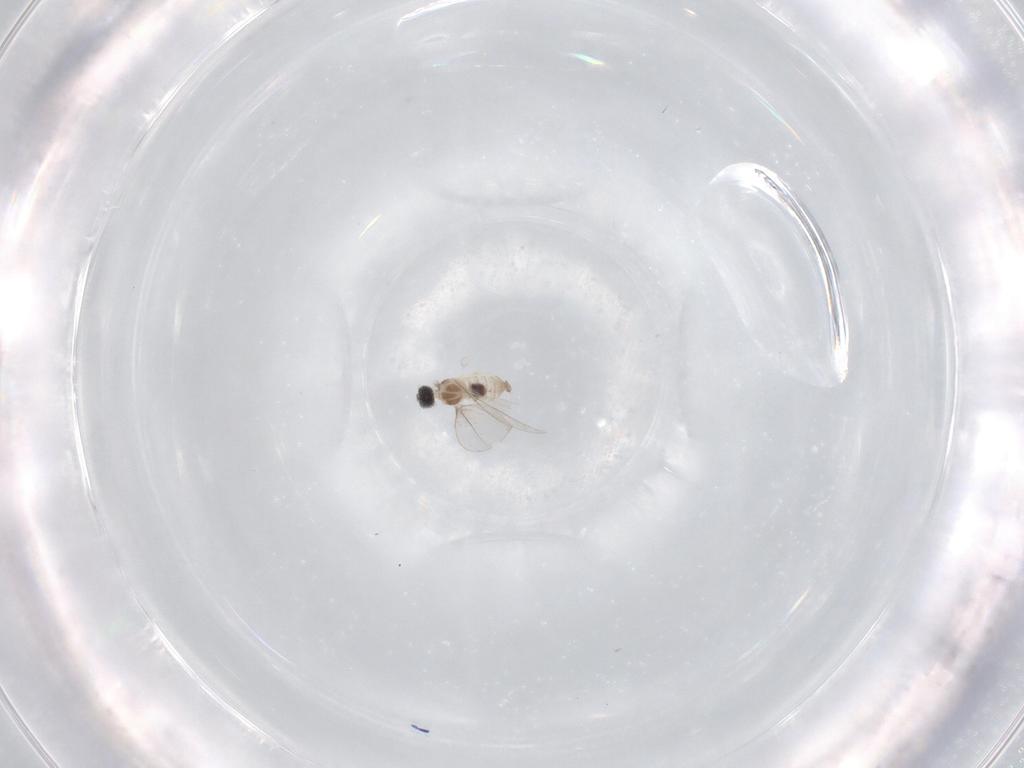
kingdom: Animalia
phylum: Arthropoda
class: Insecta
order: Diptera
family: Cecidomyiidae
